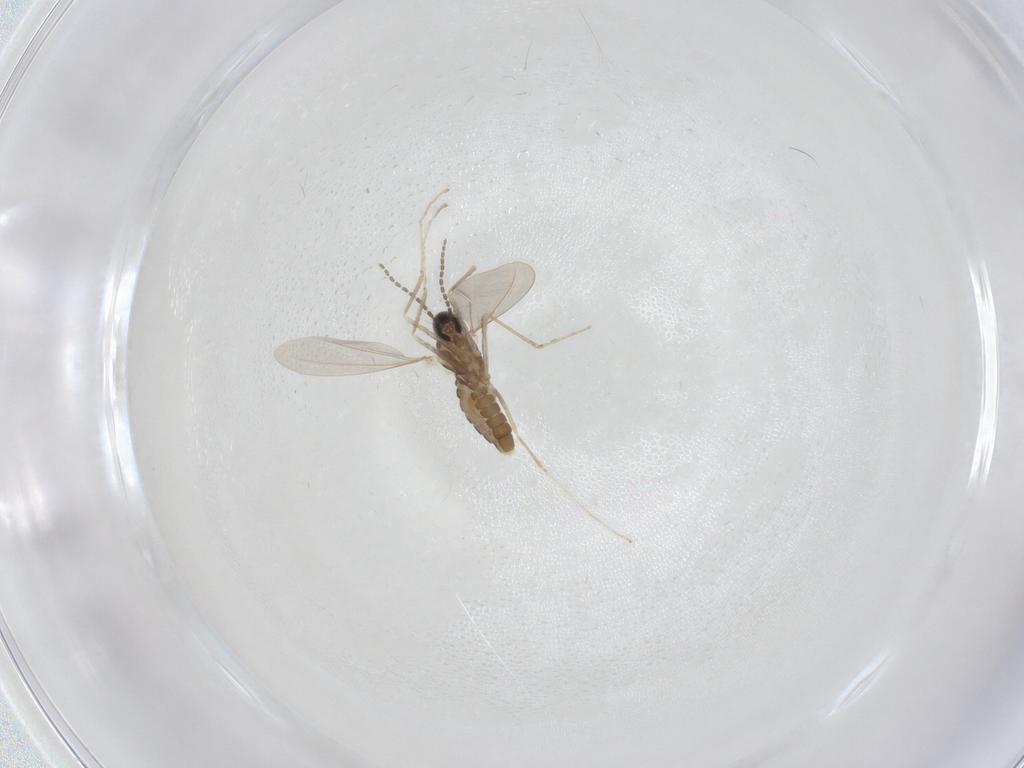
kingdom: Animalia
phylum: Arthropoda
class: Insecta
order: Diptera
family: Cecidomyiidae
